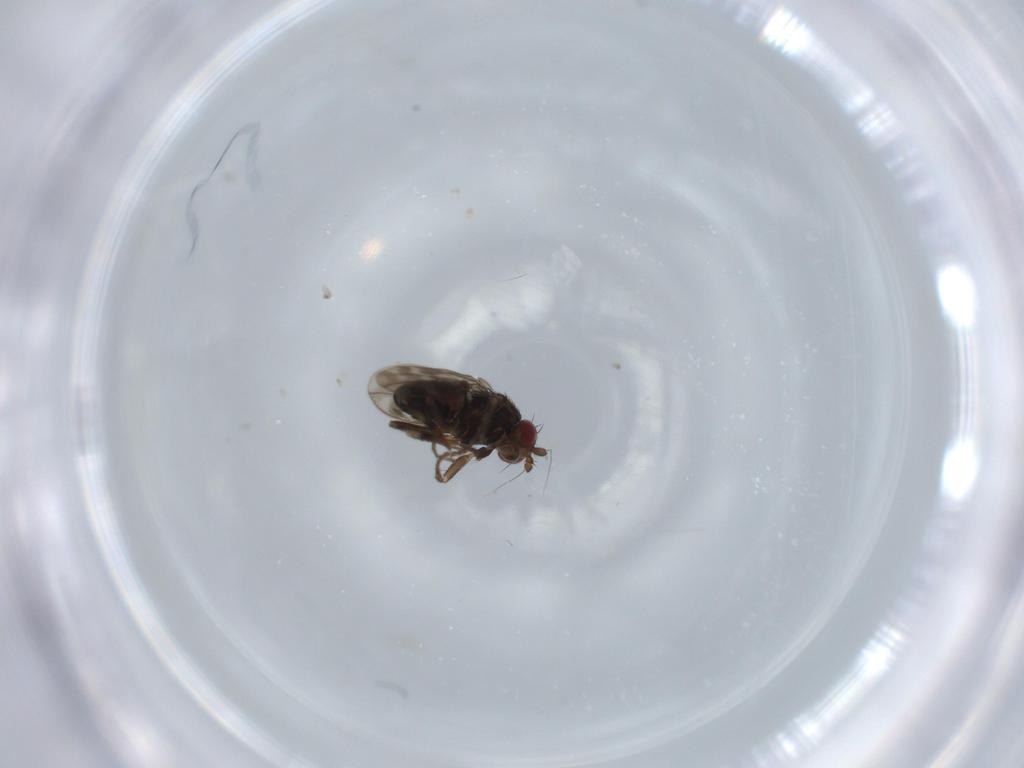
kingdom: Animalia
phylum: Arthropoda
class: Insecta
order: Diptera
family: Sphaeroceridae
